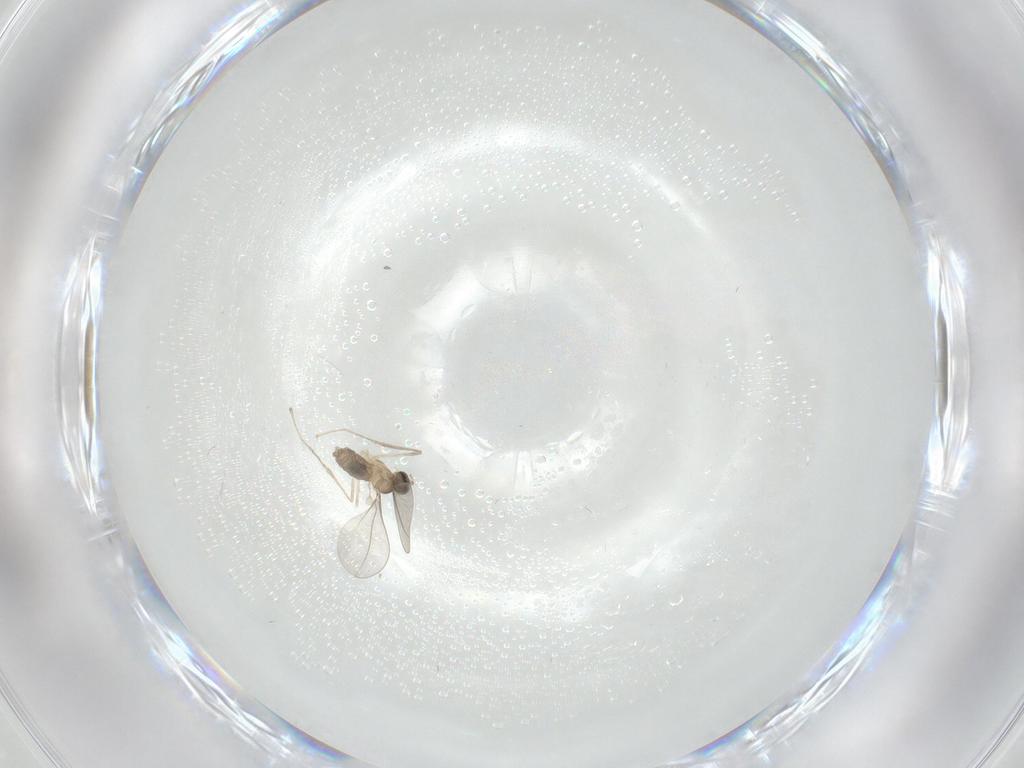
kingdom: Animalia
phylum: Arthropoda
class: Insecta
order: Diptera
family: Cecidomyiidae
